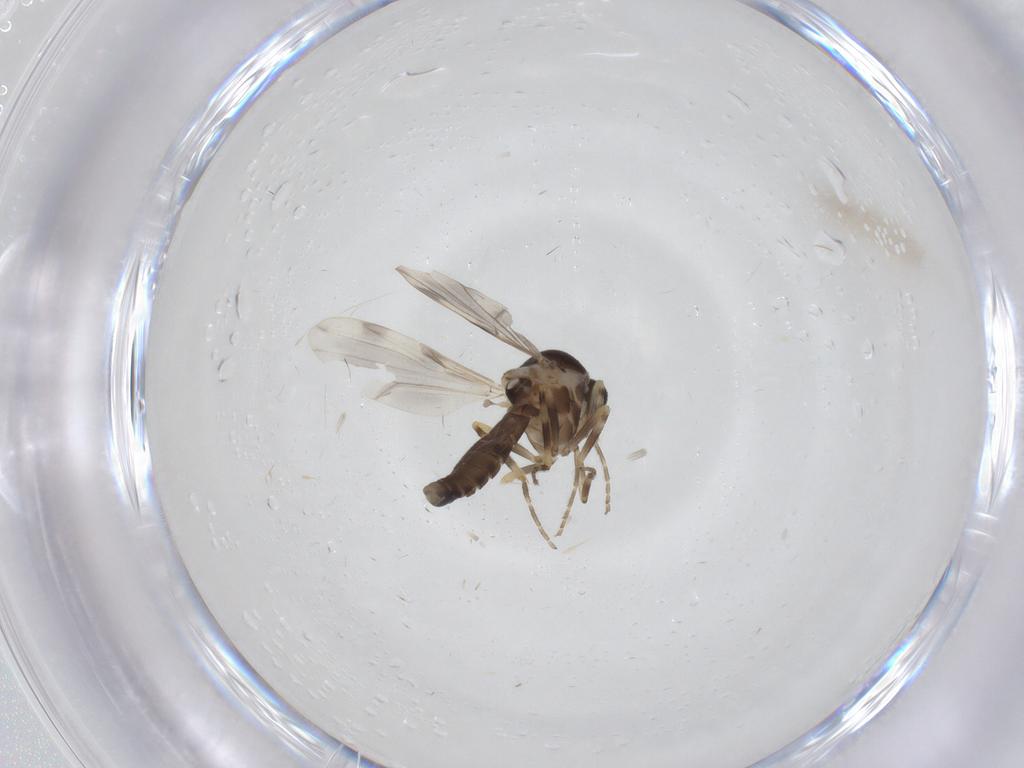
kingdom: Animalia
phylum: Arthropoda
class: Insecta
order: Diptera
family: Ceratopogonidae
